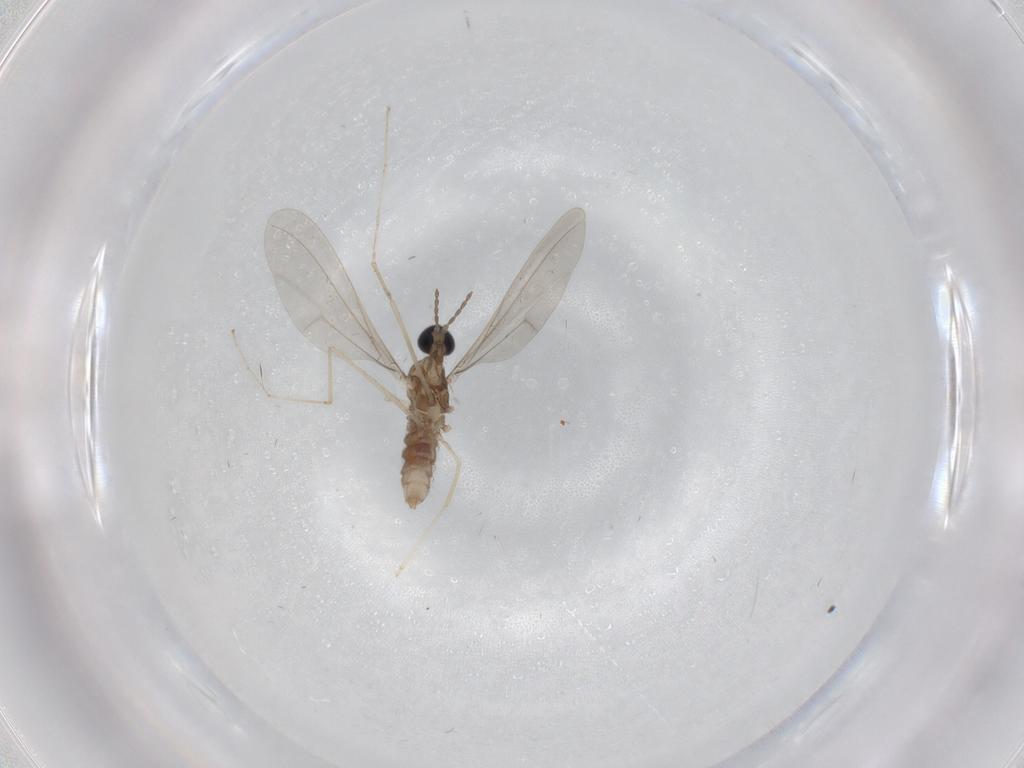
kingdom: Animalia
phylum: Arthropoda
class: Insecta
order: Diptera
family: Cecidomyiidae
